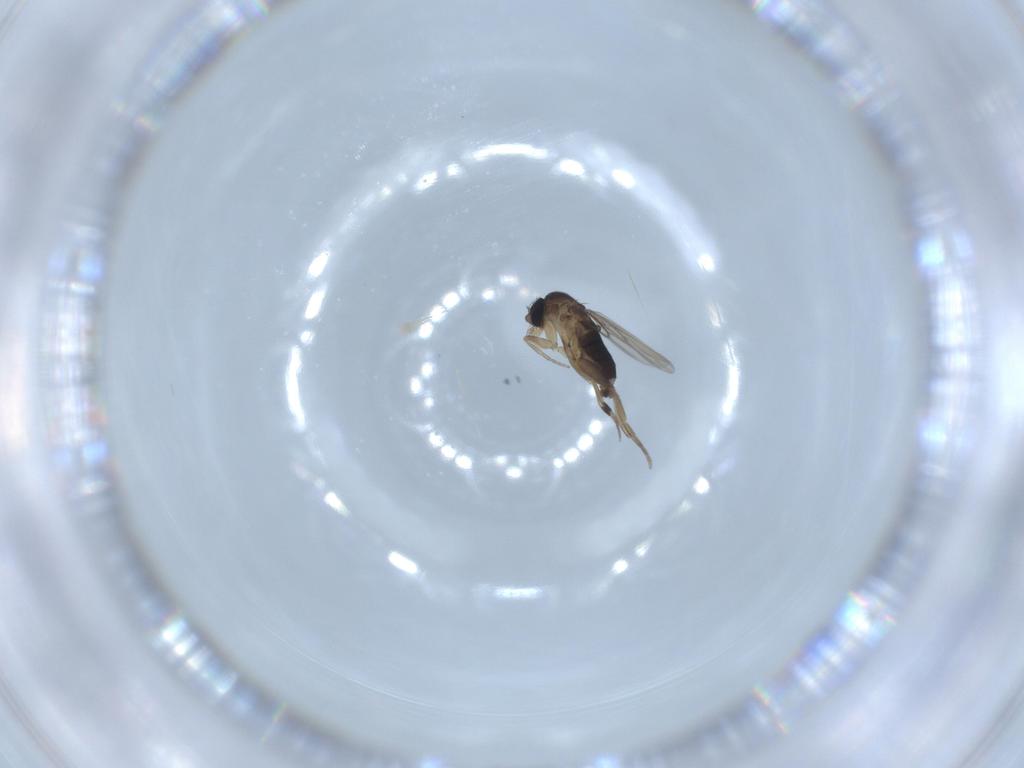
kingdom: Animalia
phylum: Arthropoda
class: Insecta
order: Diptera
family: Phoridae
